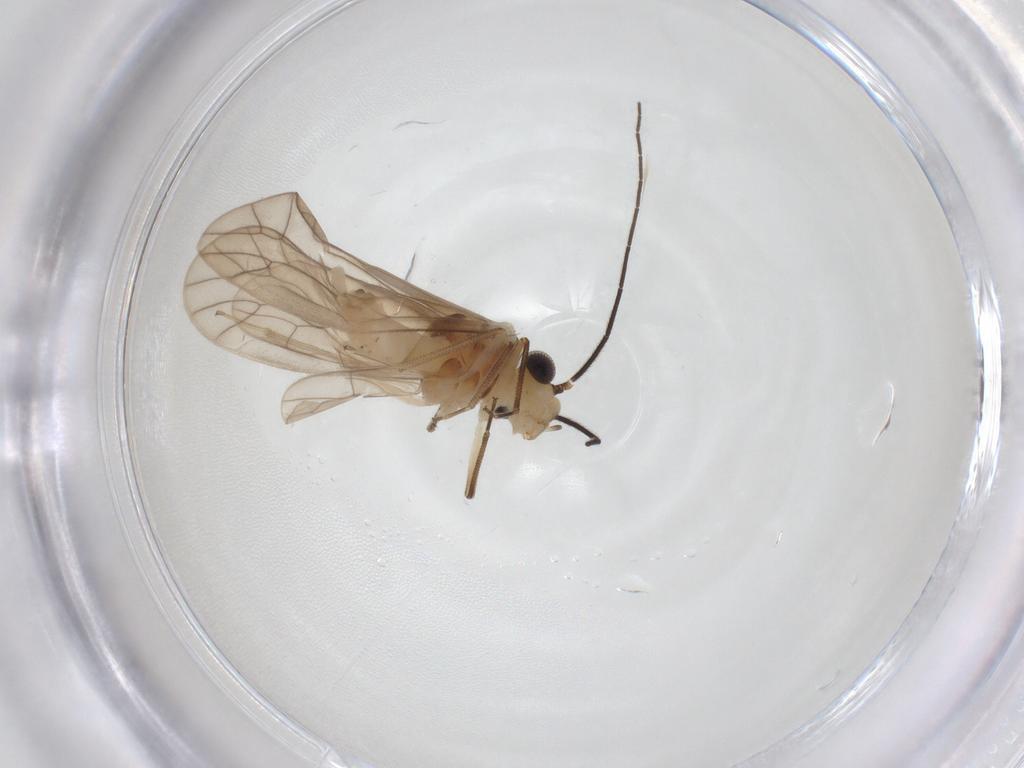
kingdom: Animalia
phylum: Arthropoda
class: Insecta
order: Psocodea
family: Caeciliusidae
